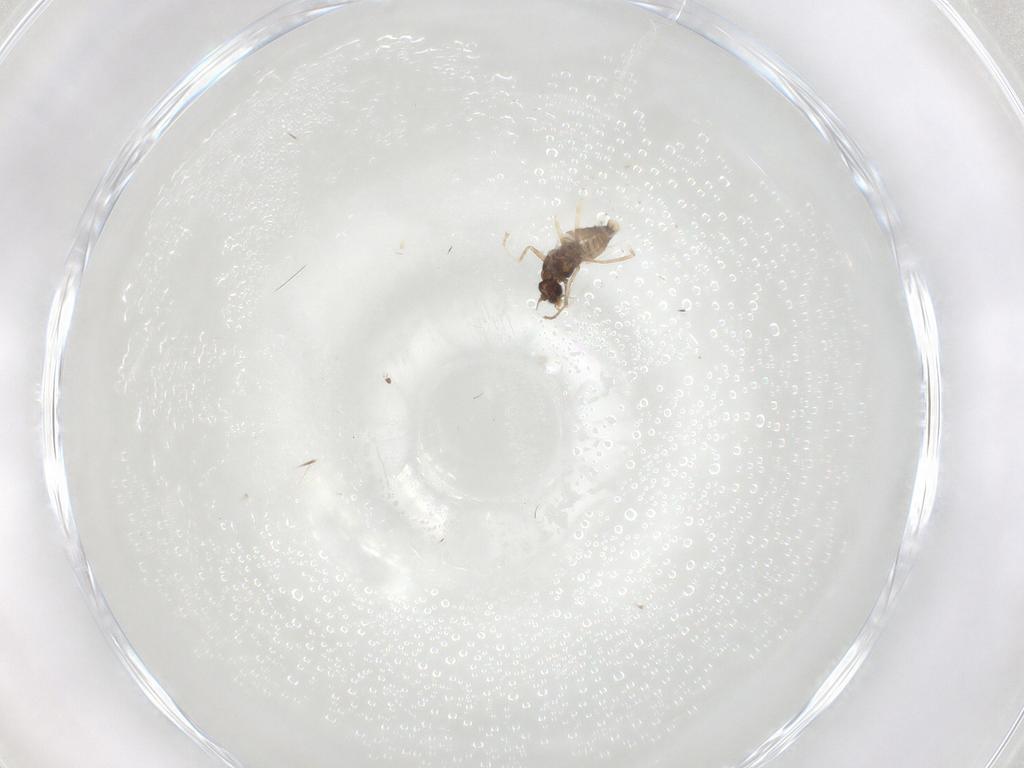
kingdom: Animalia
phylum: Arthropoda
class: Insecta
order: Diptera
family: Cecidomyiidae
